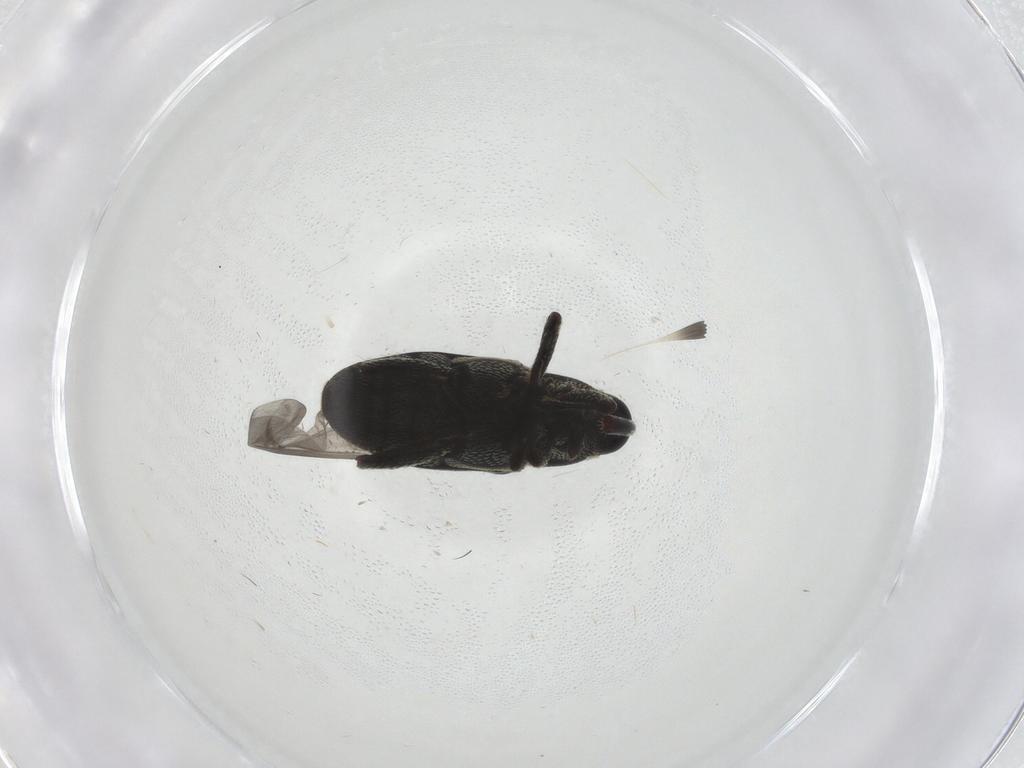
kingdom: Animalia
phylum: Arthropoda
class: Insecta
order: Coleoptera
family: Curculionidae
